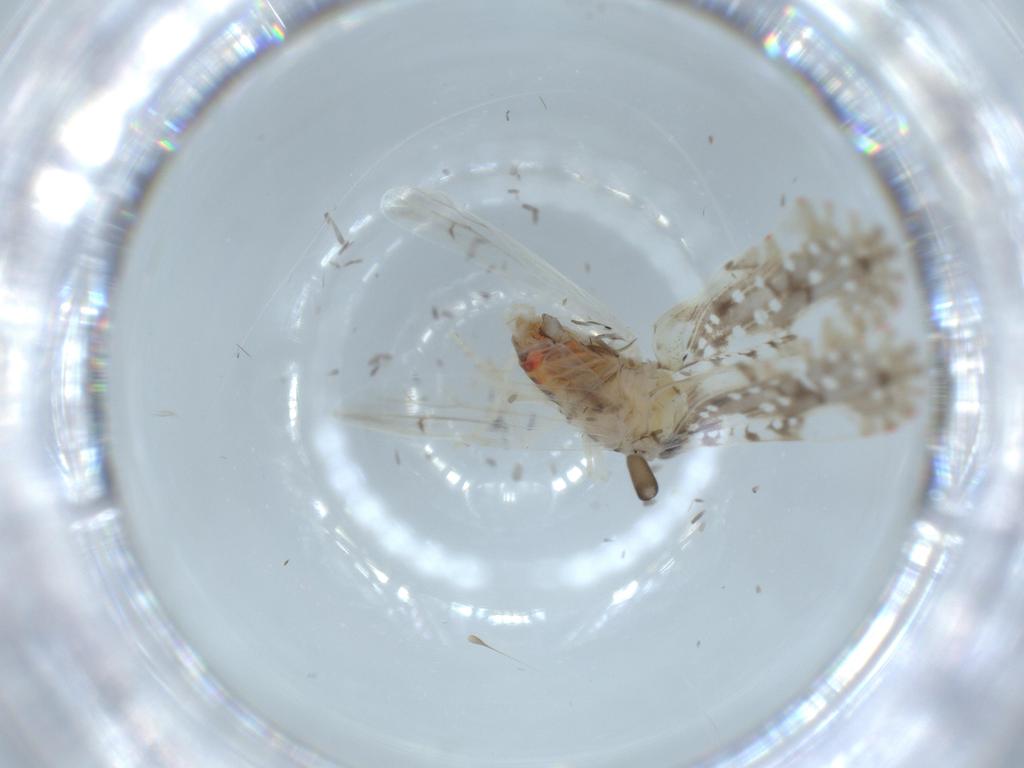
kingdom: Animalia
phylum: Arthropoda
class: Insecta
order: Hemiptera
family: Derbidae
